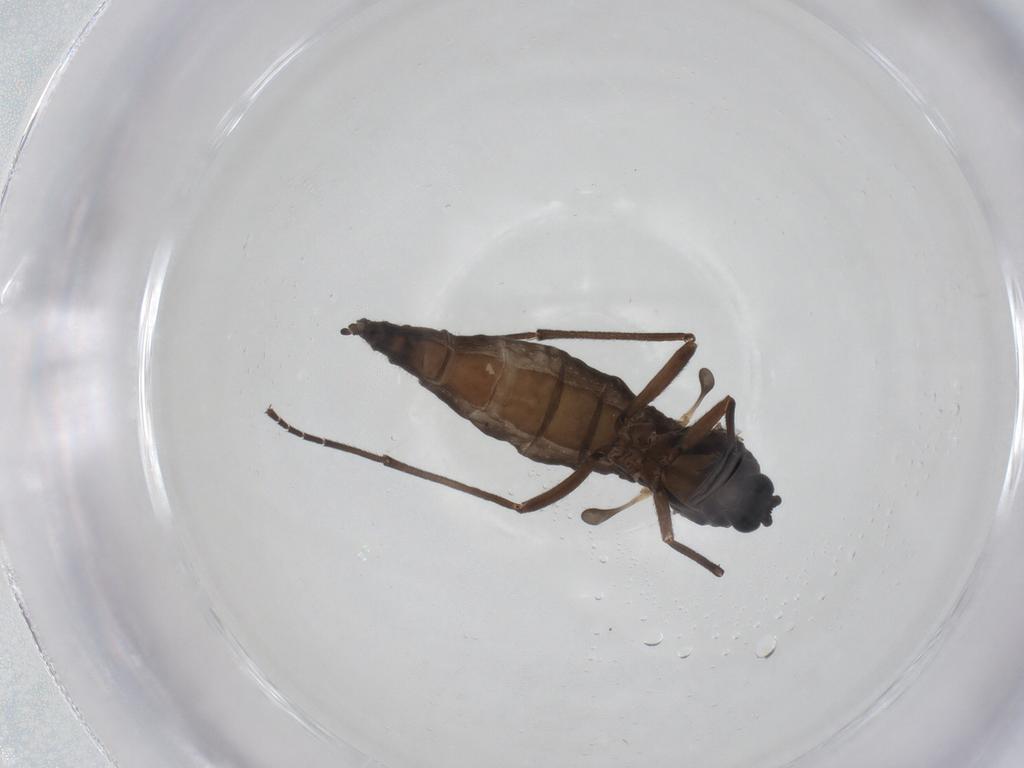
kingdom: Animalia
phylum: Arthropoda
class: Insecta
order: Diptera
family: Sciaridae
